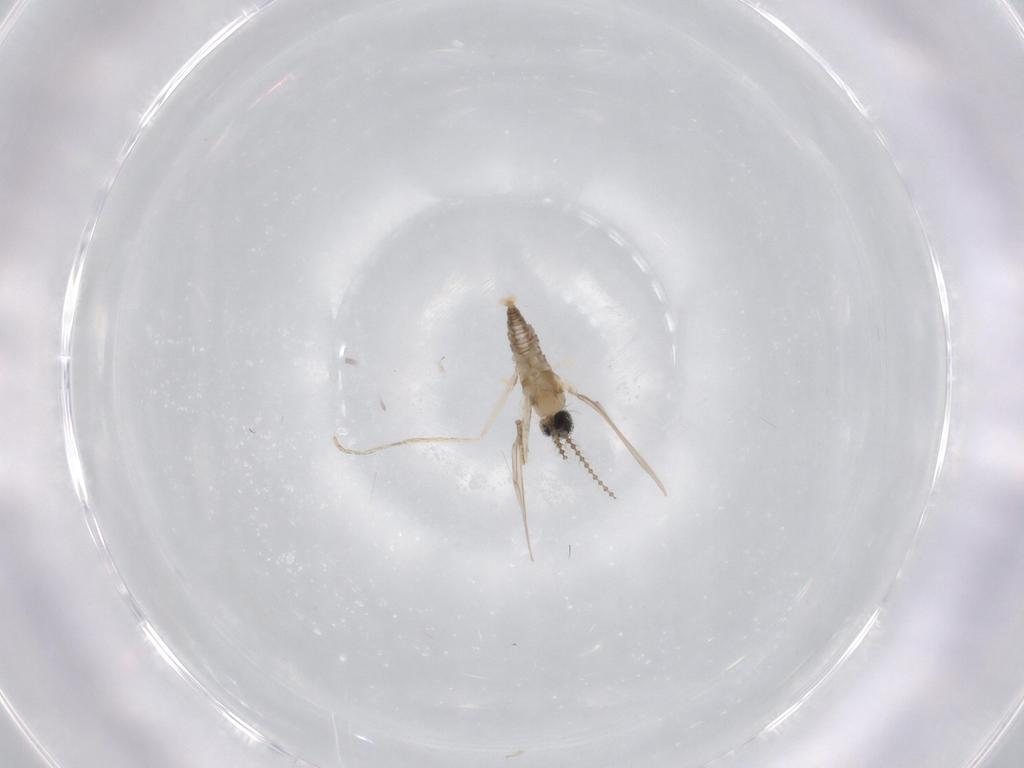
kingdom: Animalia
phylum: Arthropoda
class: Insecta
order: Diptera
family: Cecidomyiidae
